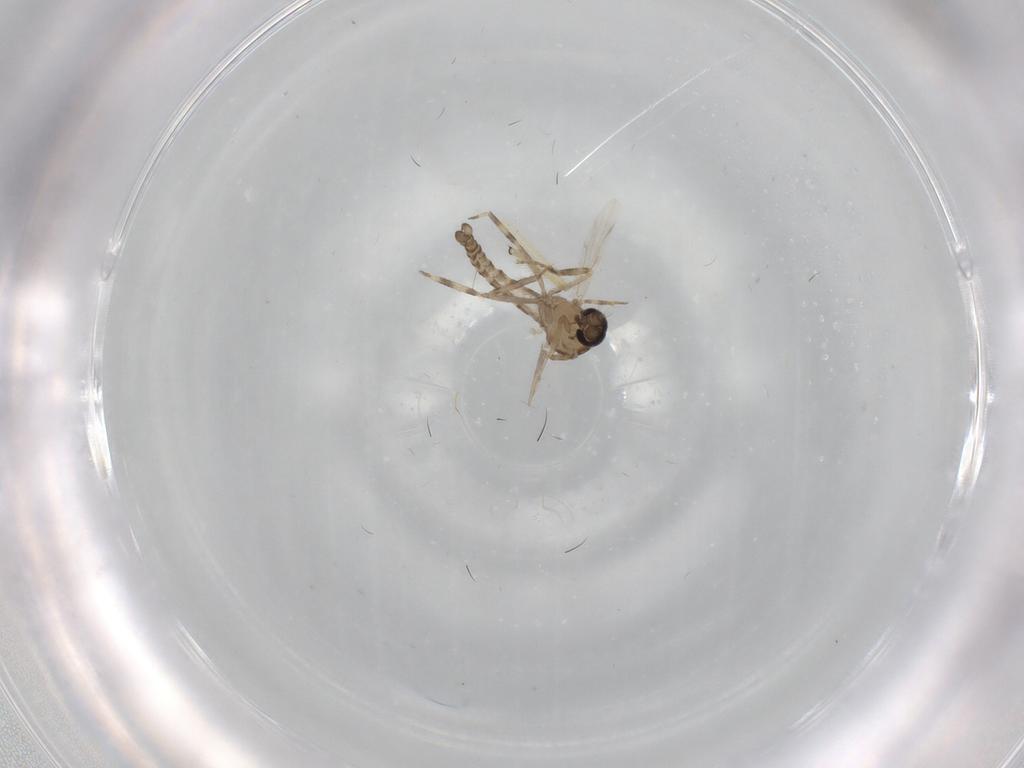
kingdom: Animalia
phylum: Arthropoda
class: Insecta
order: Diptera
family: Ceratopogonidae
